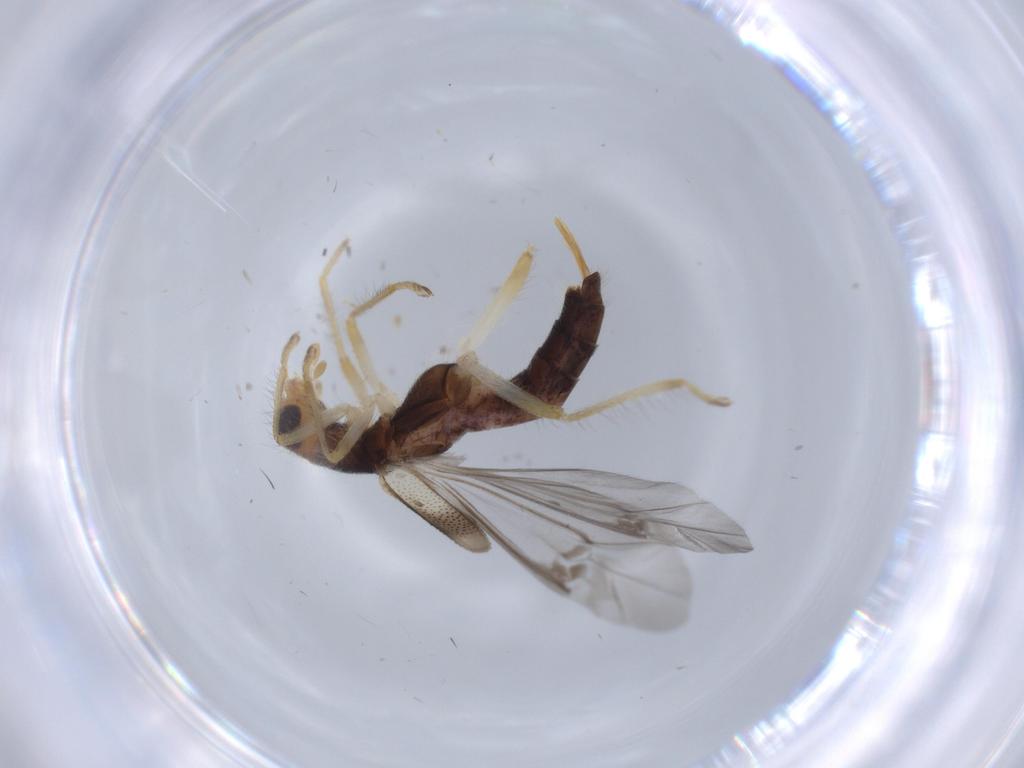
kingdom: Animalia
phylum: Arthropoda
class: Insecta
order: Coleoptera
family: Cleridae
